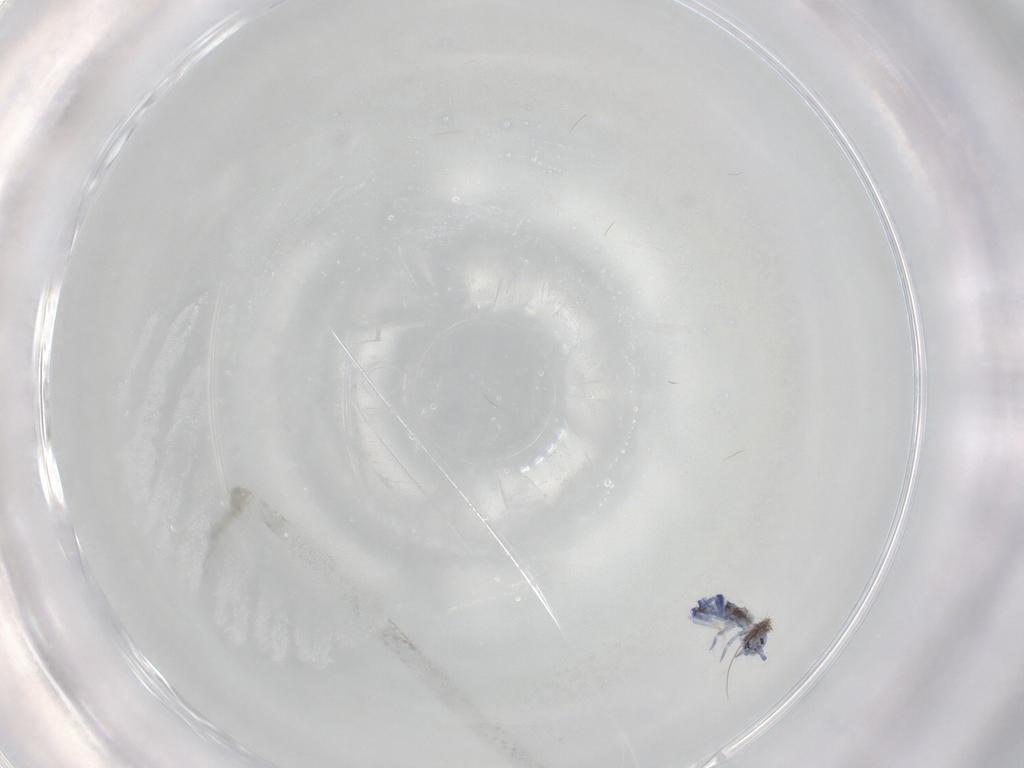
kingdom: Animalia
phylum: Arthropoda
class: Collembola
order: Entomobryomorpha
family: Entomobryidae
